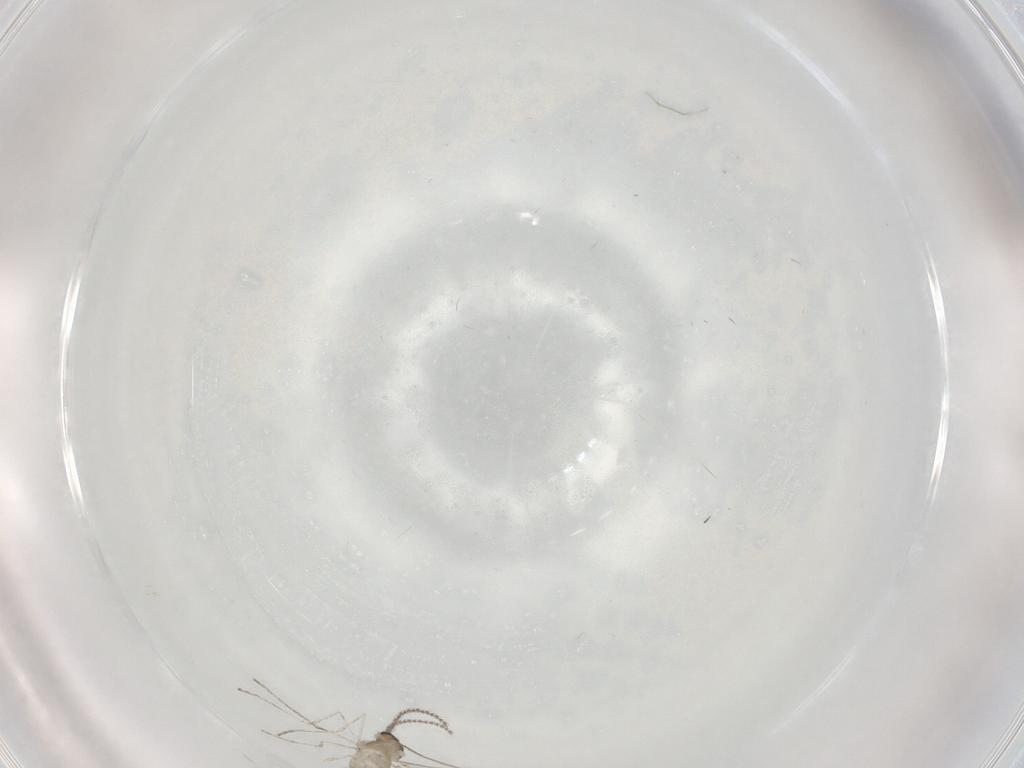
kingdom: Animalia
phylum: Arthropoda
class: Insecta
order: Diptera
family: Cecidomyiidae
